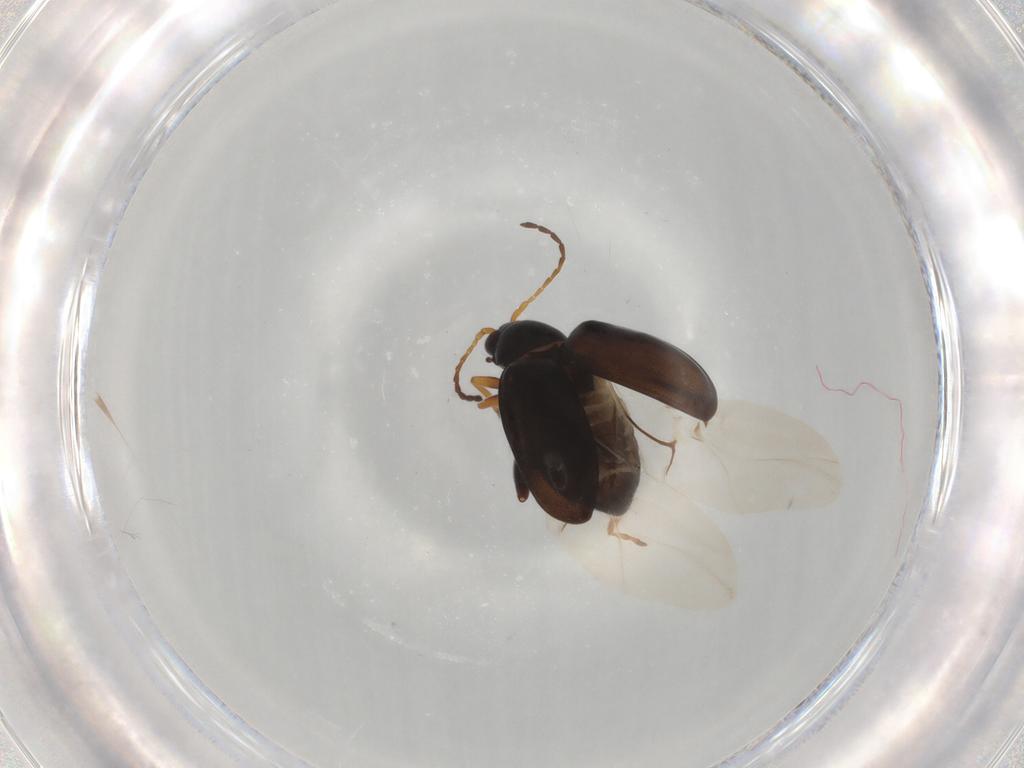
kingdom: Animalia
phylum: Arthropoda
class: Insecta
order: Coleoptera
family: Chrysomelidae
